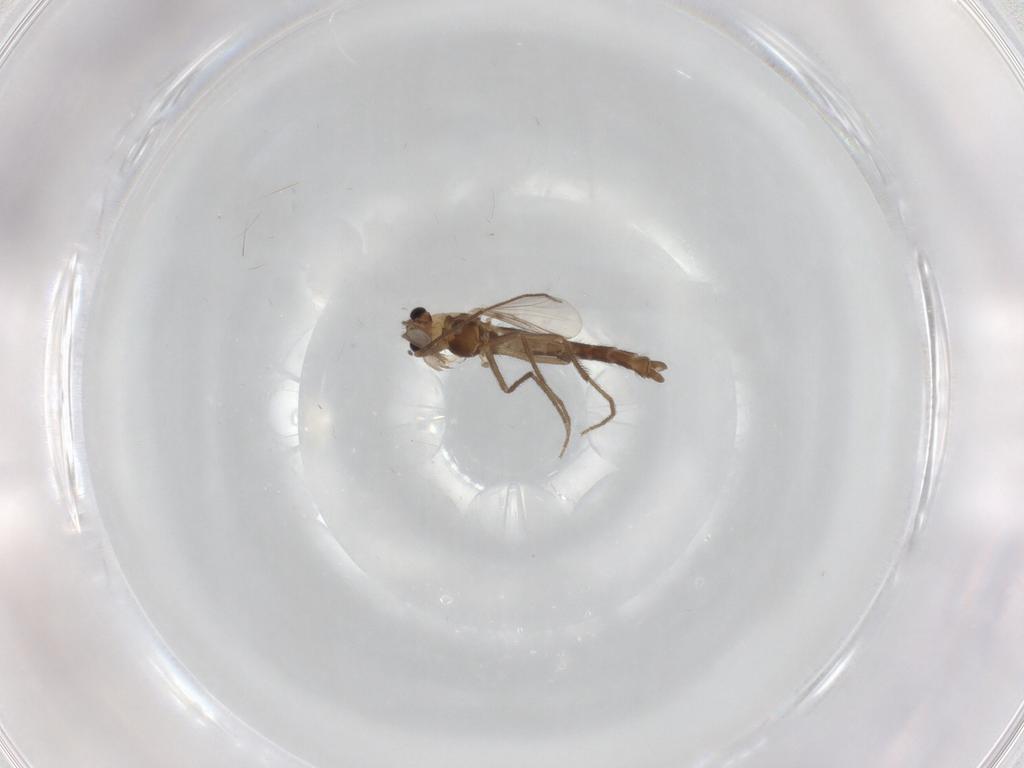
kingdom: Animalia
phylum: Arthropoda
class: Insecta
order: Diptera
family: Chironomidae
